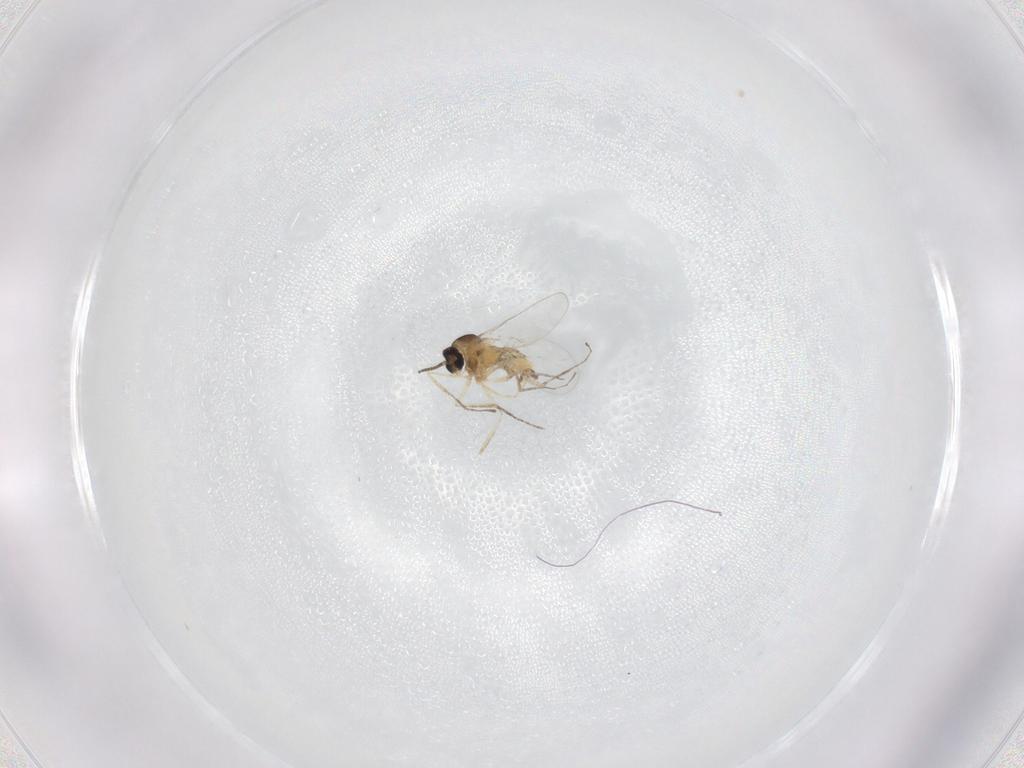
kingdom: Animalia
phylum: Arthropoda
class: Insecta
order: Diptera
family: Cecidomyiidae
